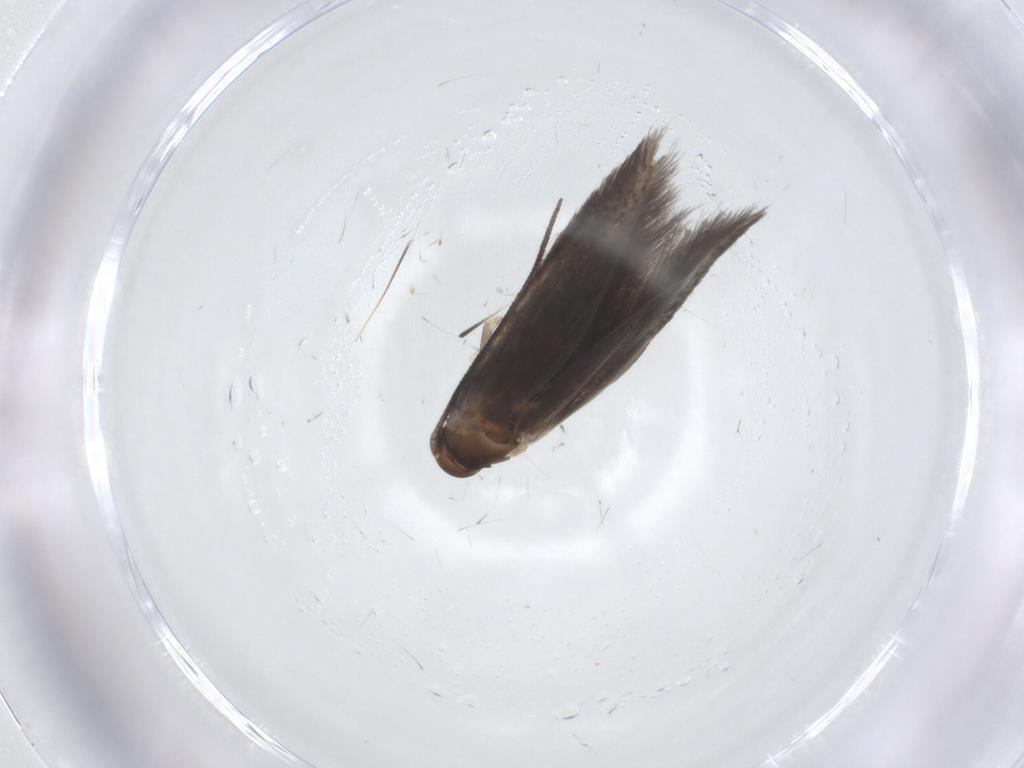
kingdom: Animalia
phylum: Arthropoda
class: Insecta
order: Lepidoptera
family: Elachistidae
